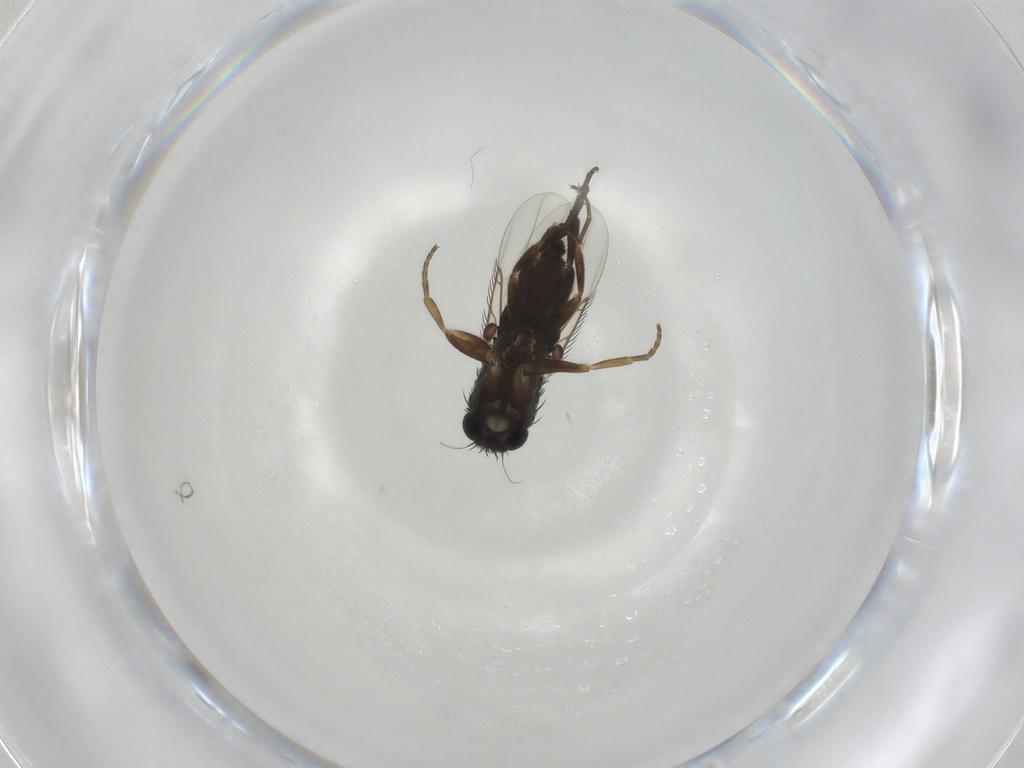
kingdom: Animalia
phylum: Arthropoda
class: Insecta
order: Diptera
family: Phoridae
